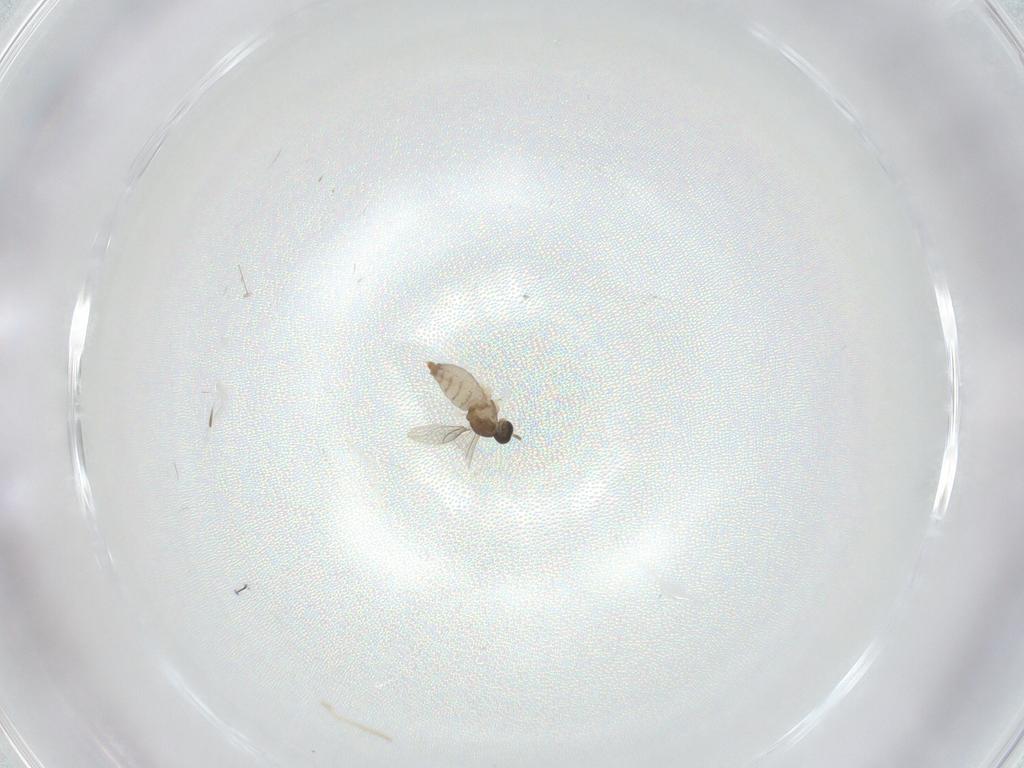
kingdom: Animalia
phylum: Arthropoda
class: Insecta
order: Diptera
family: Cecidomyiidae
